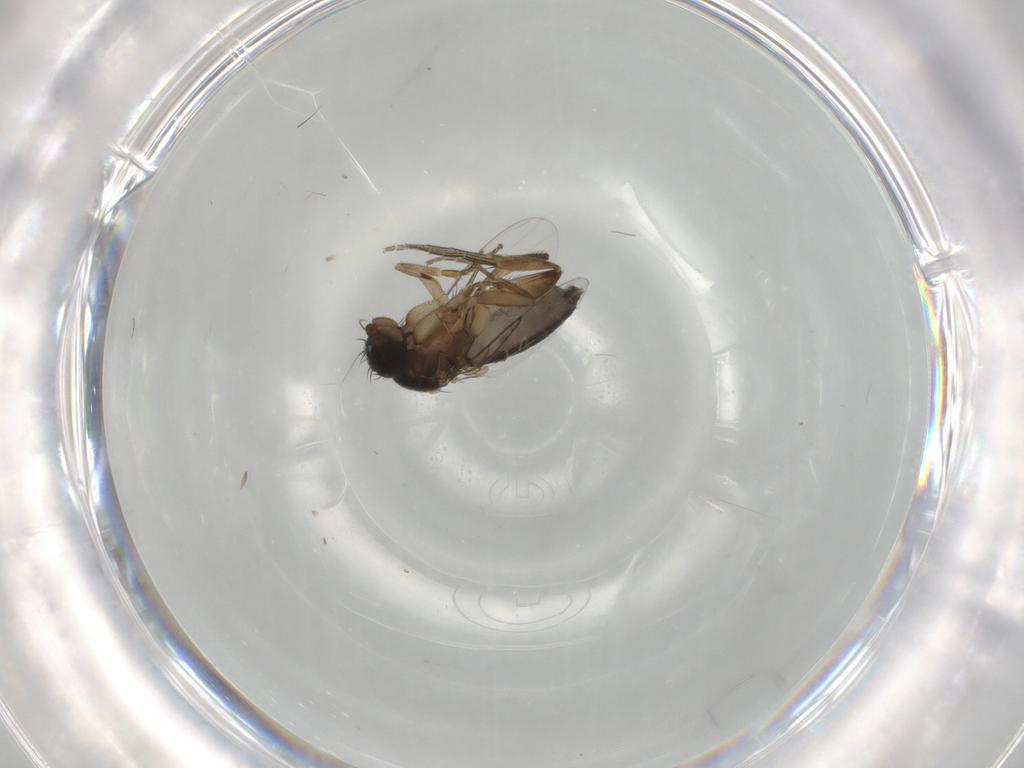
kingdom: Animalia
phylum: Arthropoda
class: Insecta
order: Diptera
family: Phoridae
